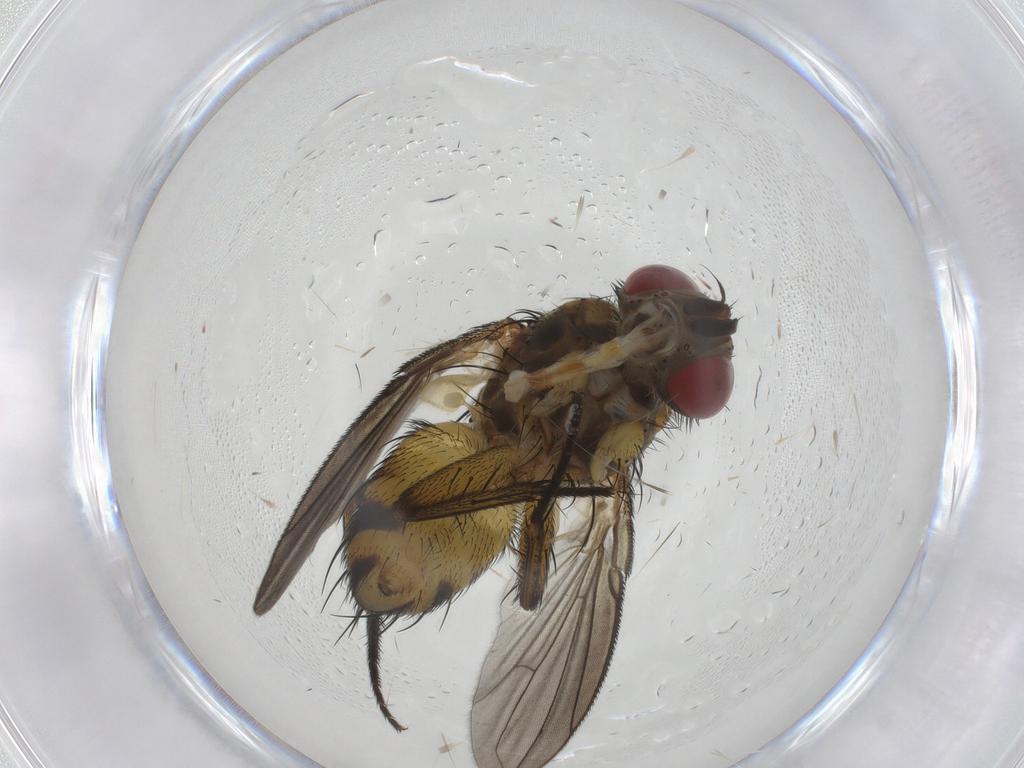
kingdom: Animalia
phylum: Arthropoda
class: Insecta
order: Diptera
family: Tachinidae
